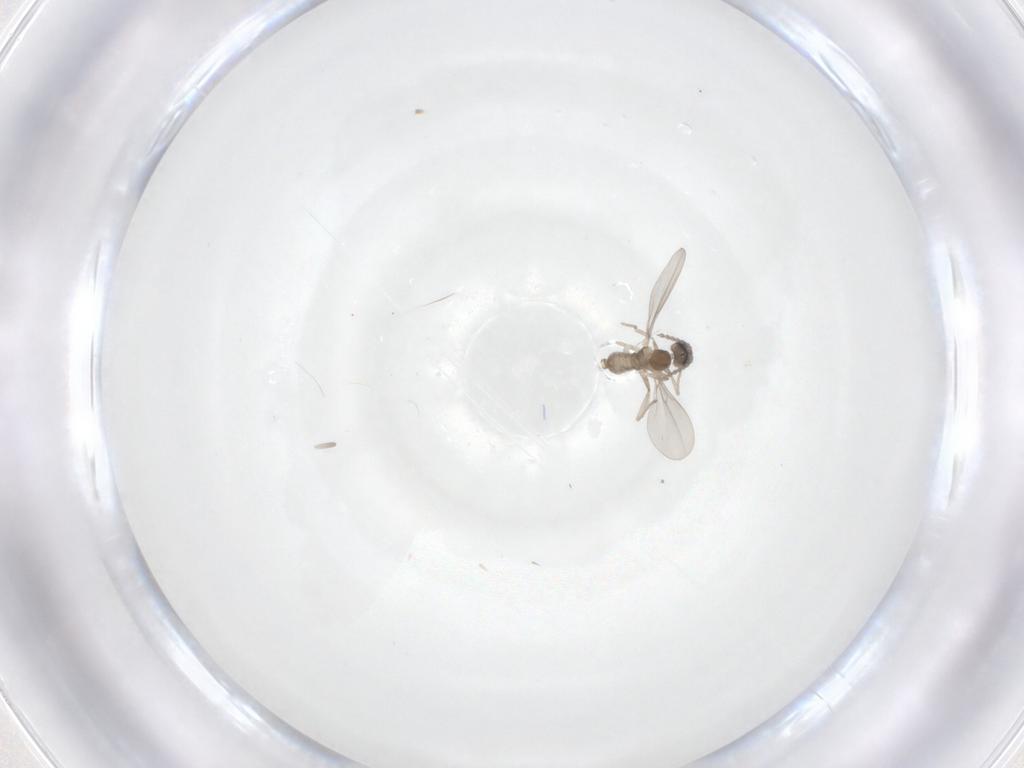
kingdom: Animalia
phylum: Arthropoda
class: Insecta
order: Diptera
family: Cecidomyiidae
